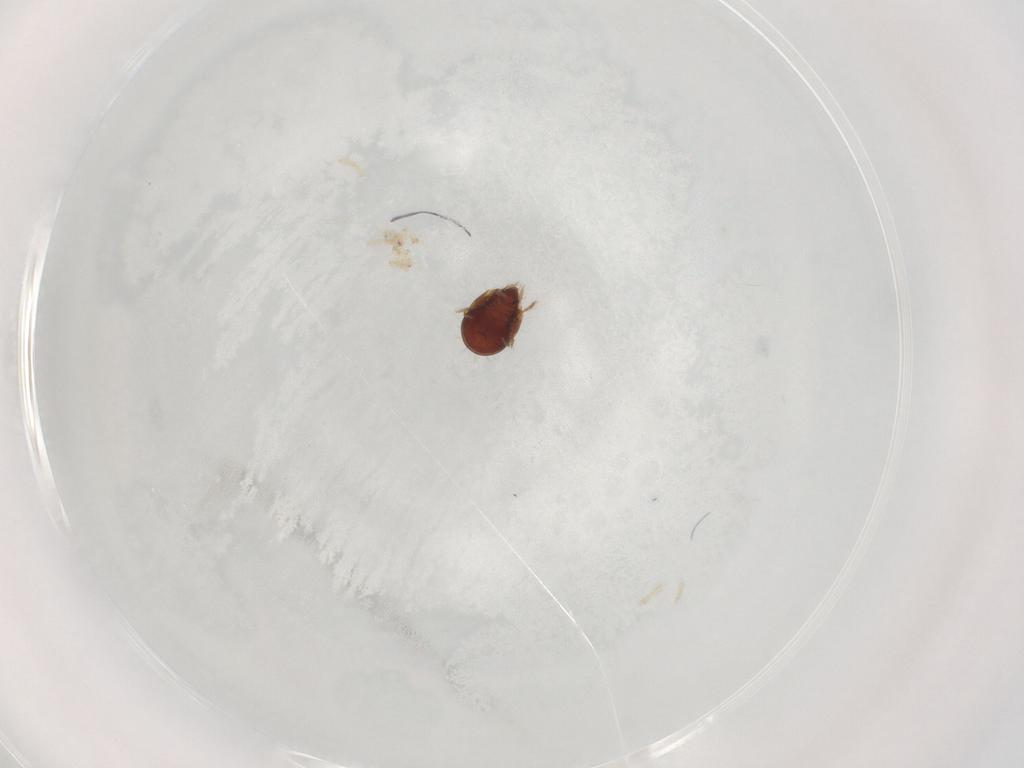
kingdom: Animalia
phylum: Arthropoda
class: Arachnida
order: Sarcoptiformes
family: Humerobatidae
